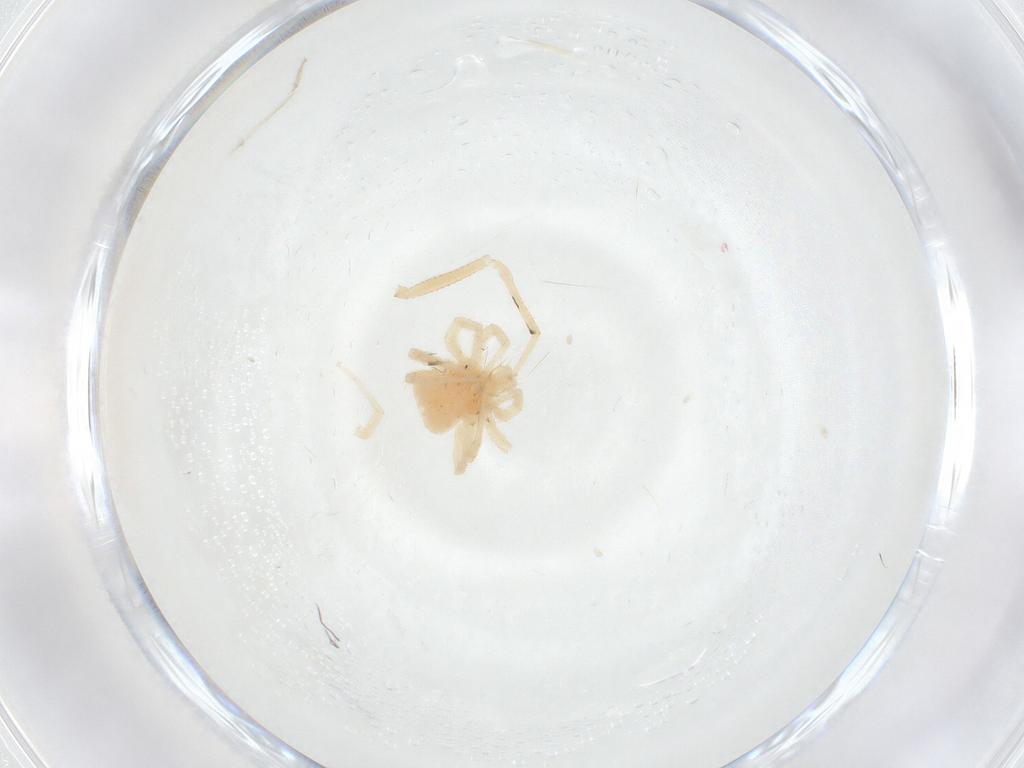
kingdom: Animalia
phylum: Arthropoda
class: Arachnida
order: Araneae
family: Theridiidae
